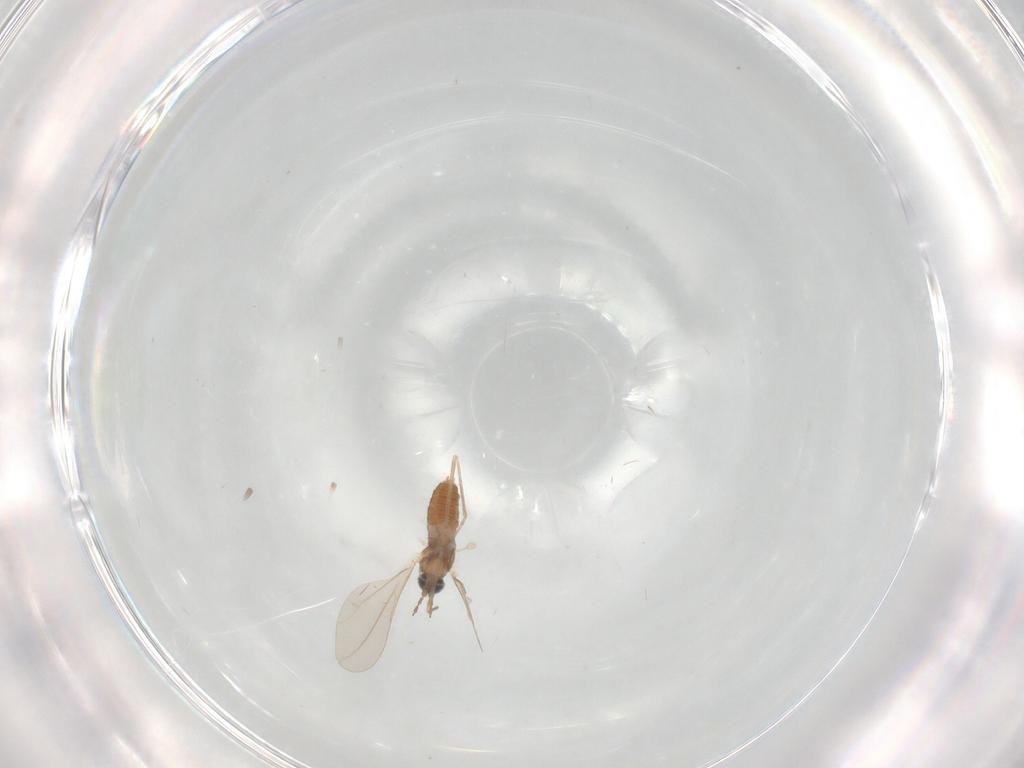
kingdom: Animalia
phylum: Arthropoda
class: Insecta
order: Diptera
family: Cecidomyiidae
